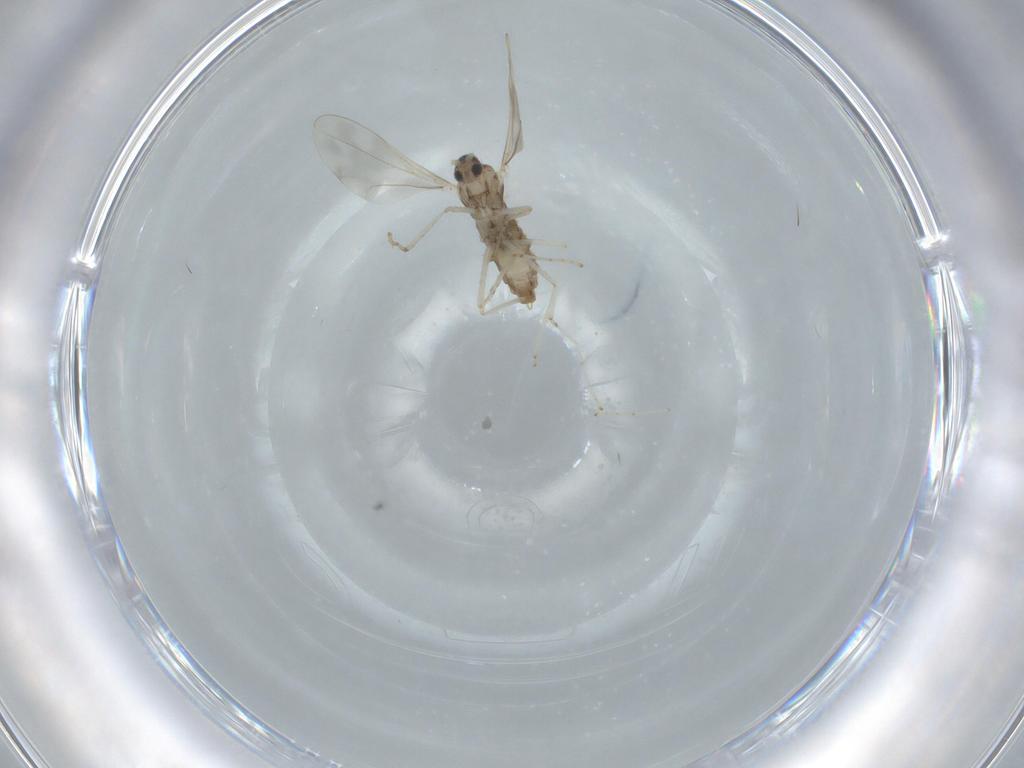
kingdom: Animalia
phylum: Arthropoda
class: Insecta
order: Diptera
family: Cecidomyiidae
